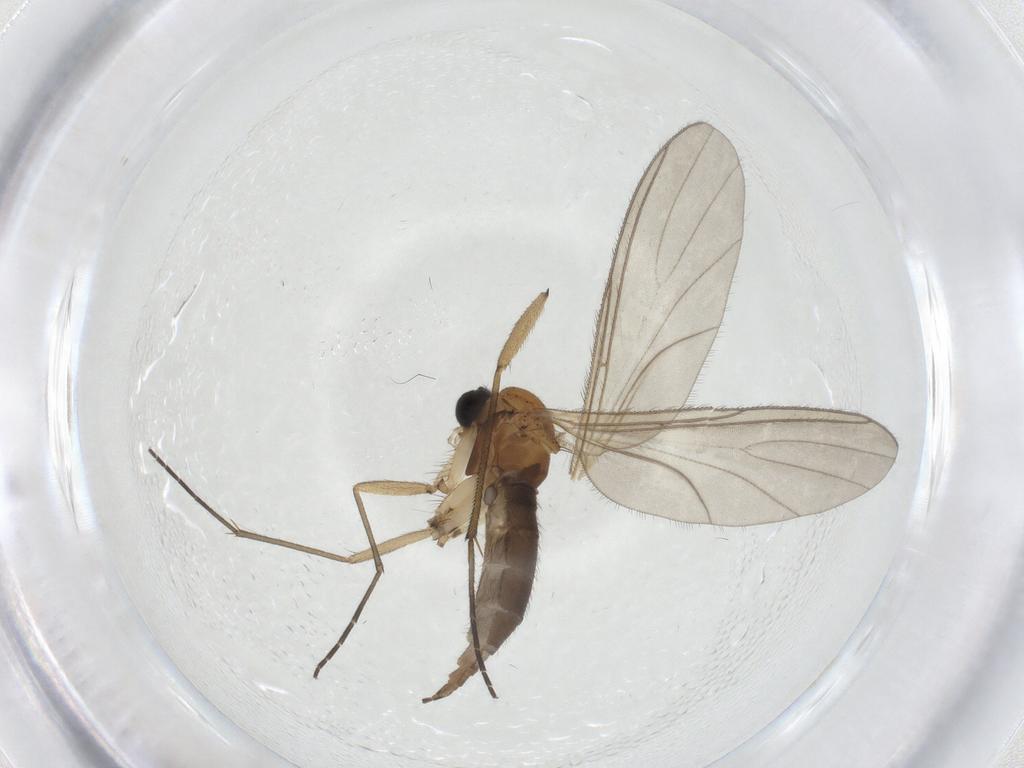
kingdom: Animalia
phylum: Arthropoda
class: Insecta
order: Diptera
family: Sciaridae
